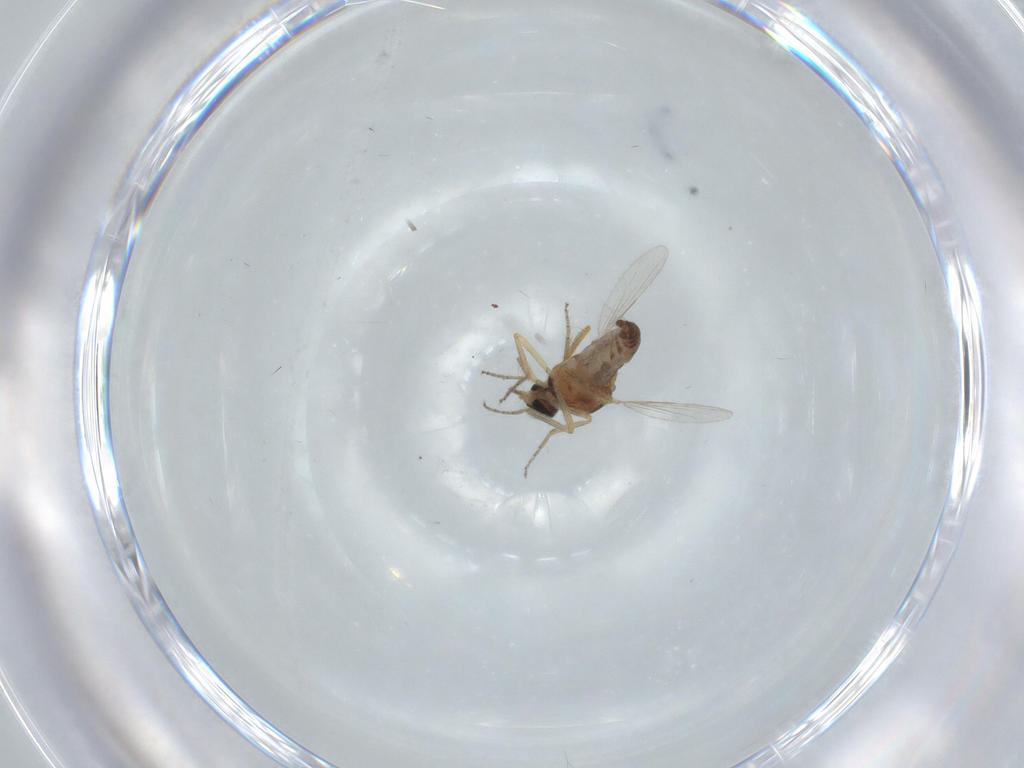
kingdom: Animalia
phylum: Arthropoda
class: Insecta
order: Diptera
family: Ceratopogonidae
